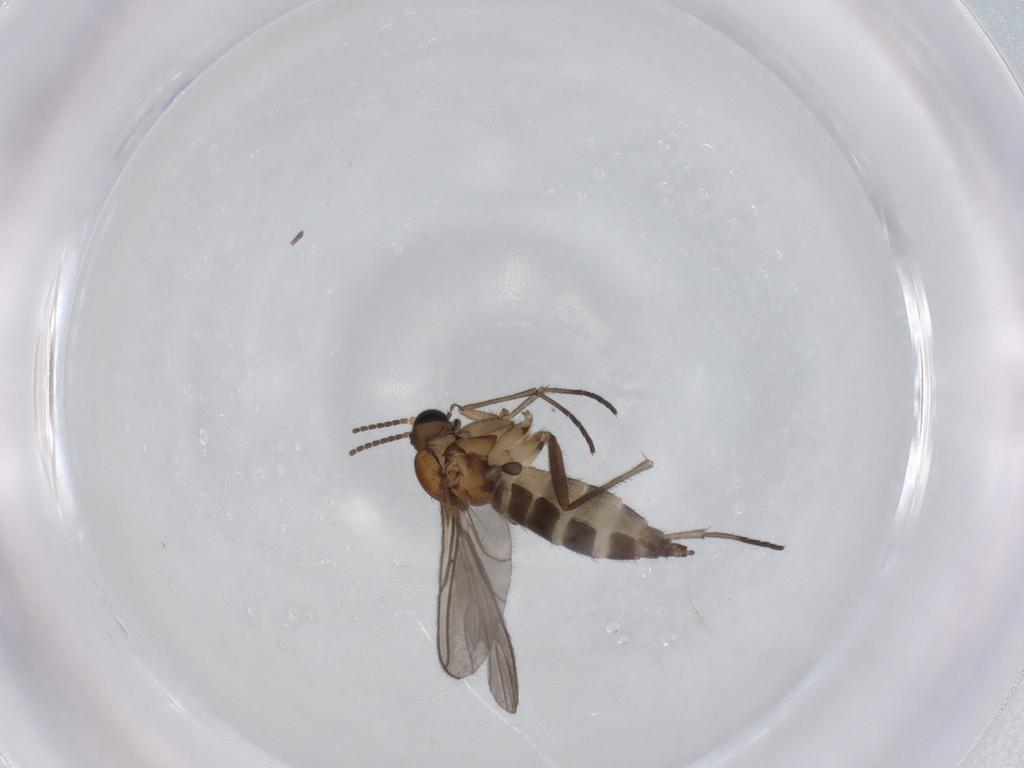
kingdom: Animalia
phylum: Arthropoda
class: Insecta
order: Diptera
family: Sciaridae
